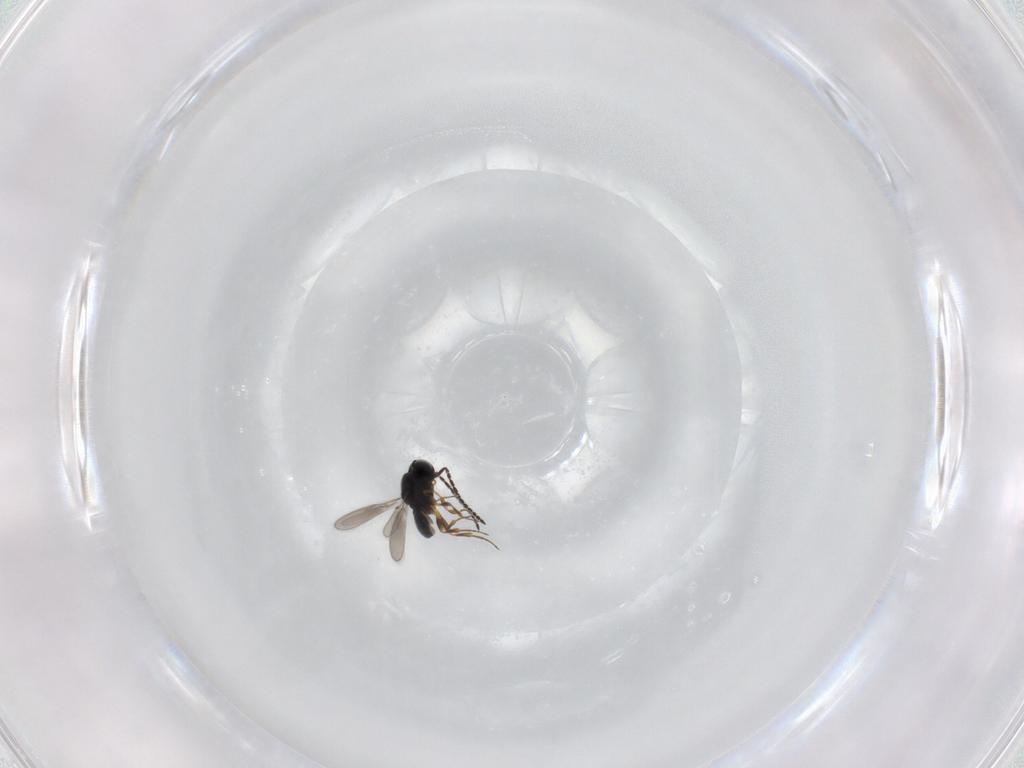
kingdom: Animalia
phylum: Arthropoda
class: Insecta
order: Hymenoptera
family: Scelionidae
